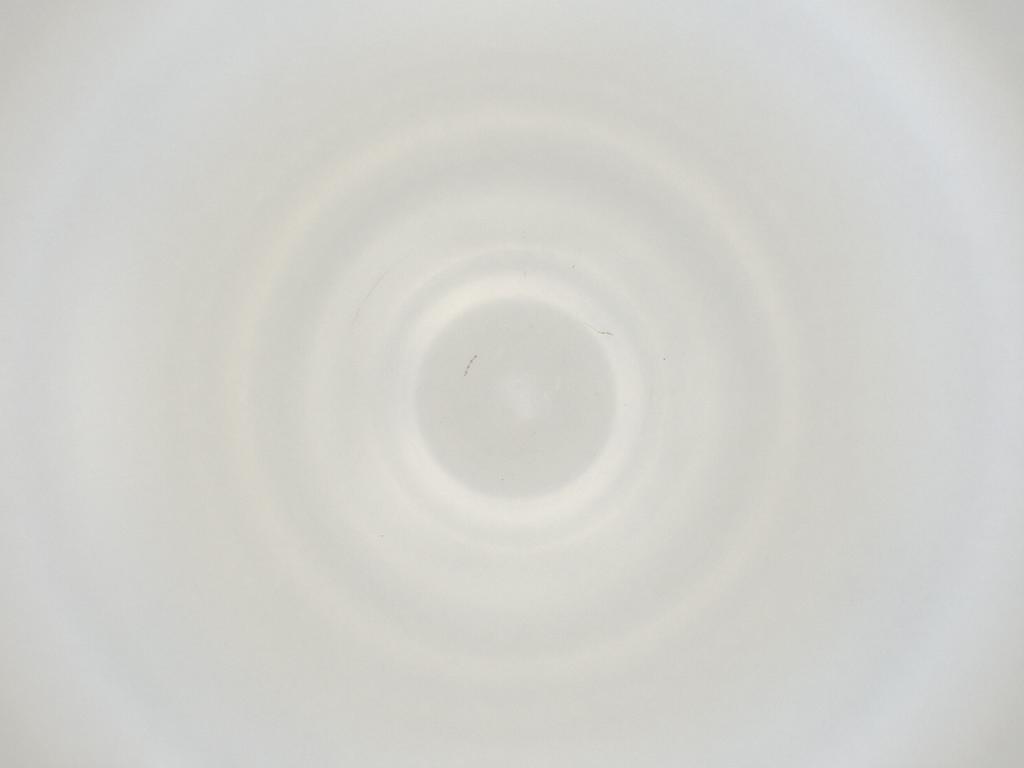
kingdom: Animalia
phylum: Arthropoda
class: Insecta
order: Diptera
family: Cecidomyiidae
